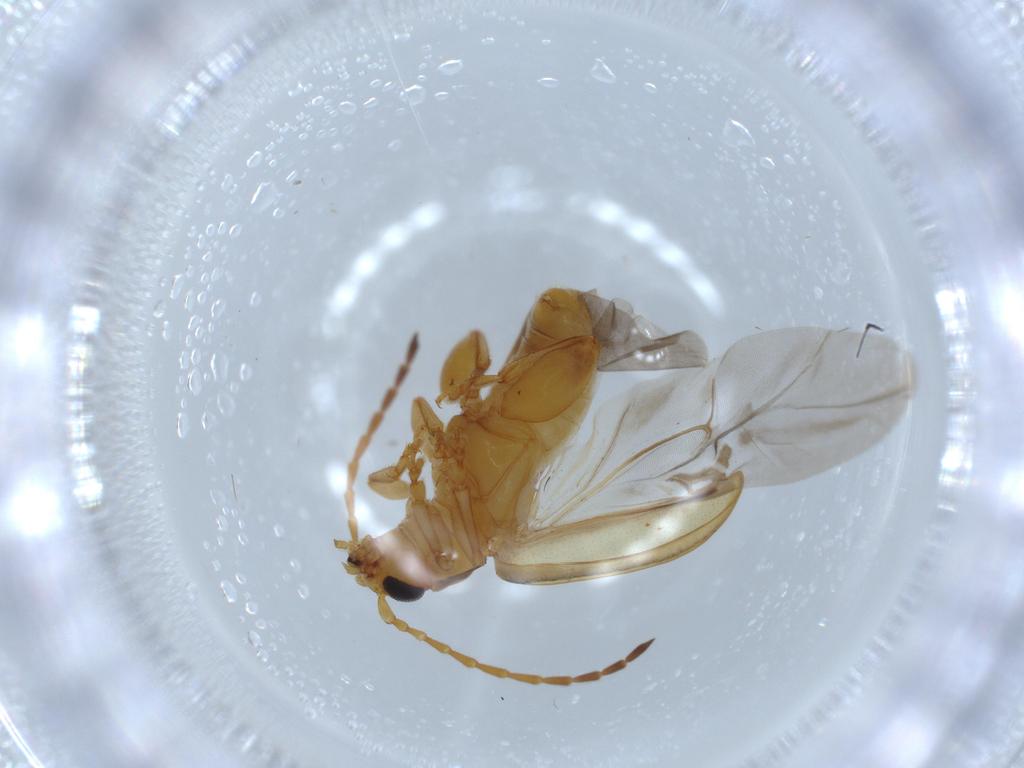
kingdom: Animalia
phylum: Arthropoda
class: Insecta
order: Coleoptera
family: Chrysomelidae
